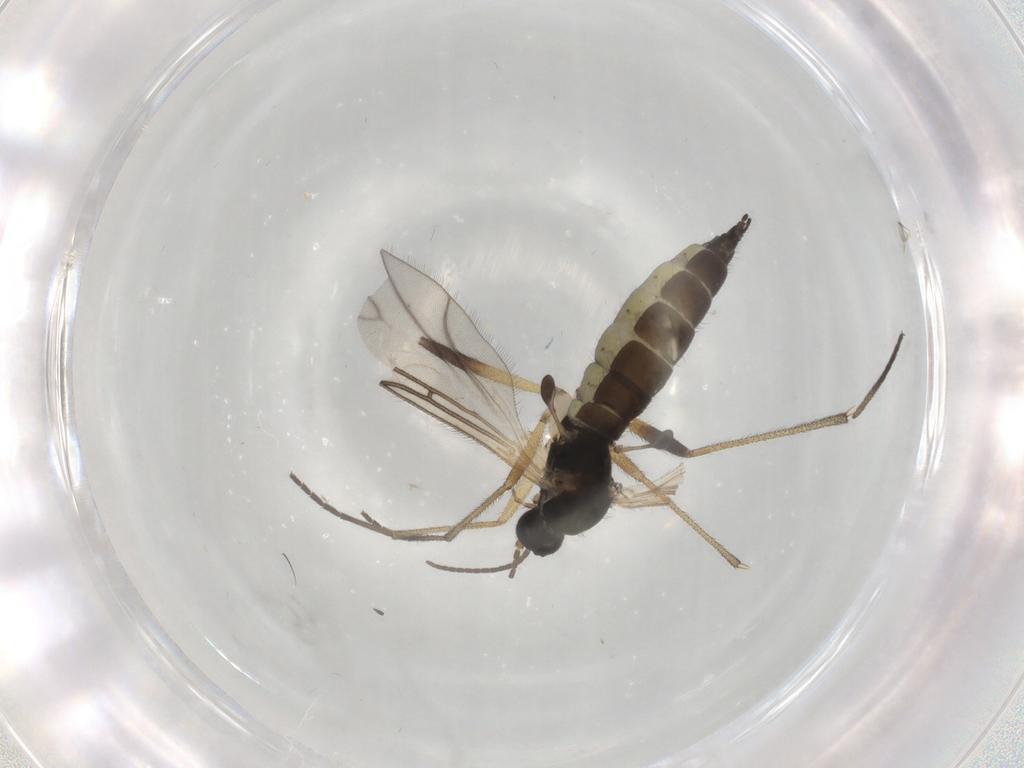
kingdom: Animalia
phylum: Arthropoda
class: Insecta
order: Diptera
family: Sciaridae
